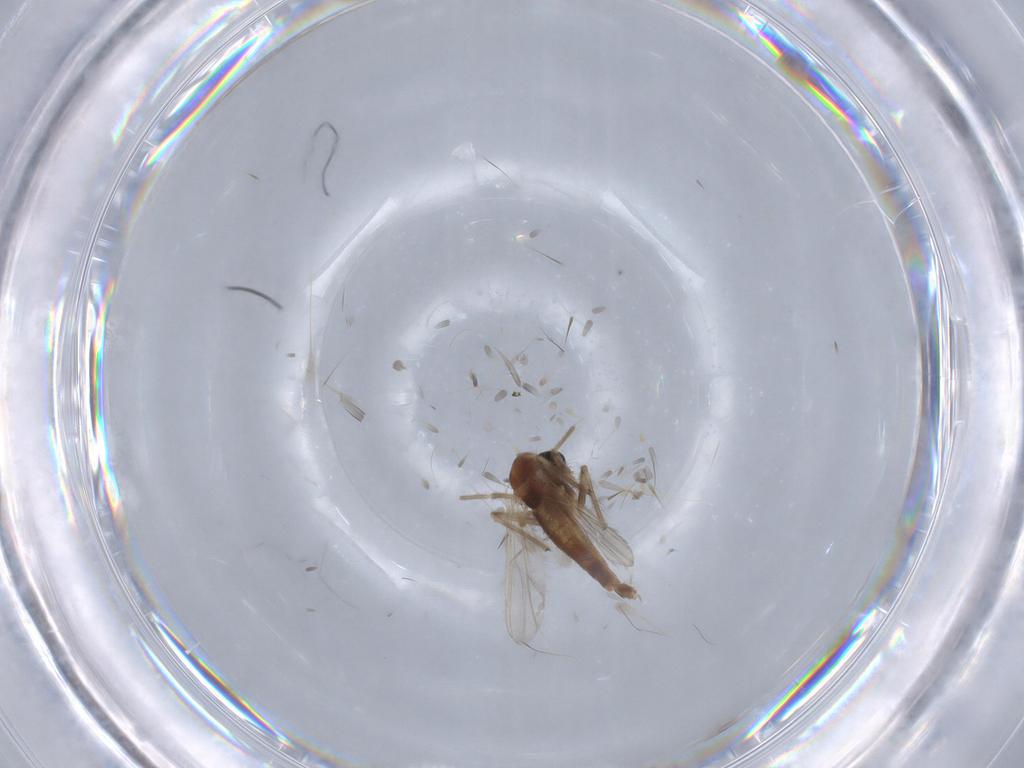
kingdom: Animalia
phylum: Arthropoda
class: Insecta
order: Diptera
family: Chironomidae
